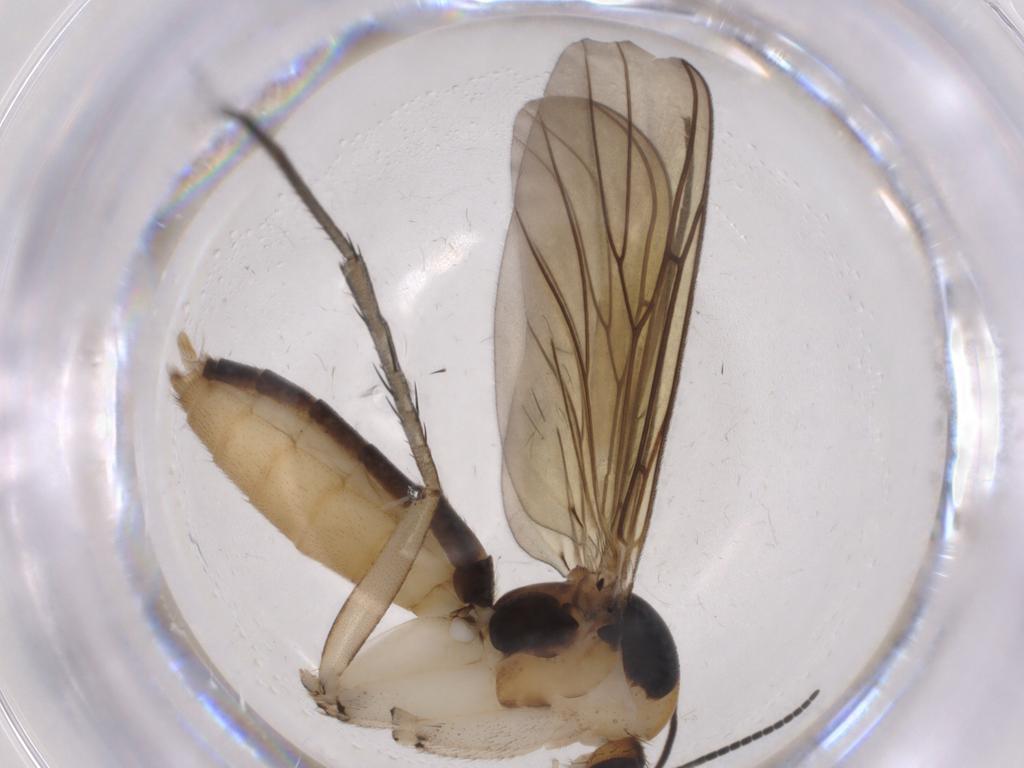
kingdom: Animalia
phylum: Arthropoda
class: Insecta
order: Diptera
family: Mycetophilidae
